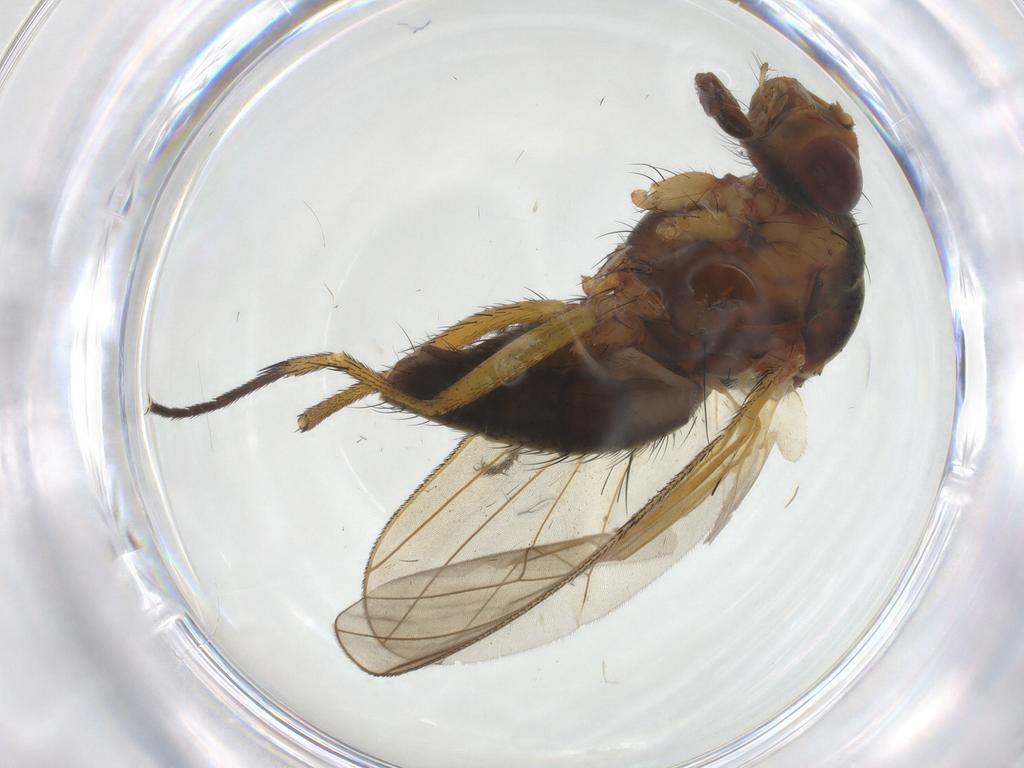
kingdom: Animalia
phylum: Arthropoda
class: Insecta
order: Diptera
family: Anthomyiidae
